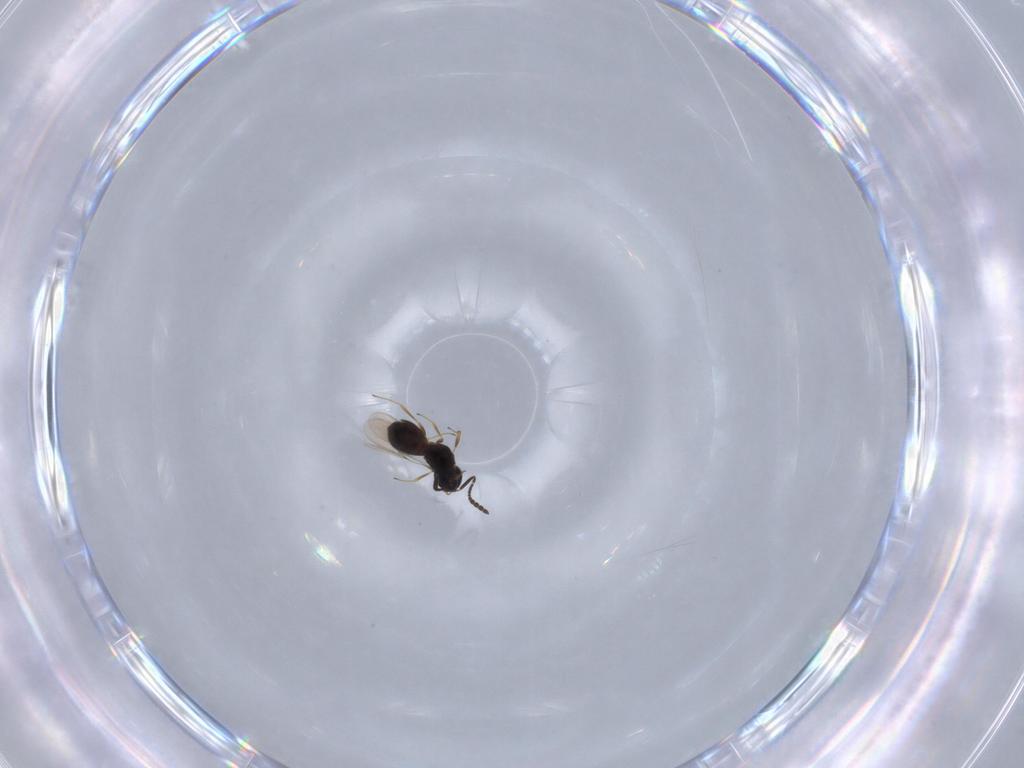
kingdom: Animalia
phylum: Arthropoda
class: Insecta
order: Hymenoptera
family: Scelionidae
